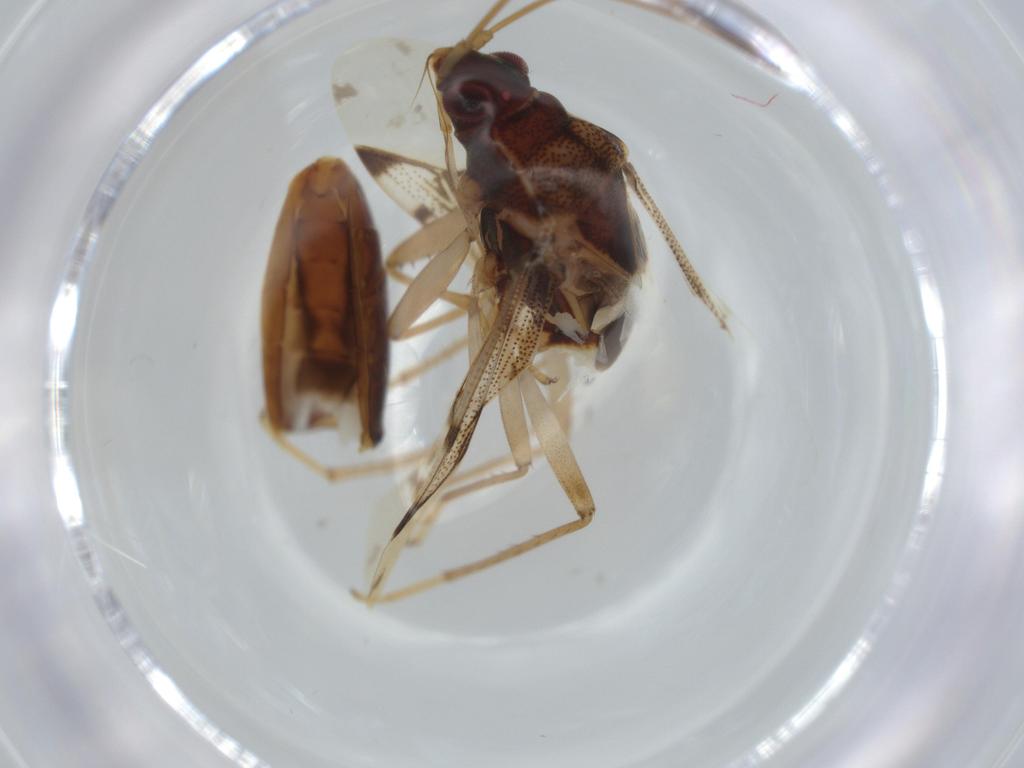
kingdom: Animalia
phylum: Arthropoda
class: Insecta
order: Hemiptera
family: Rhyparochromidae
